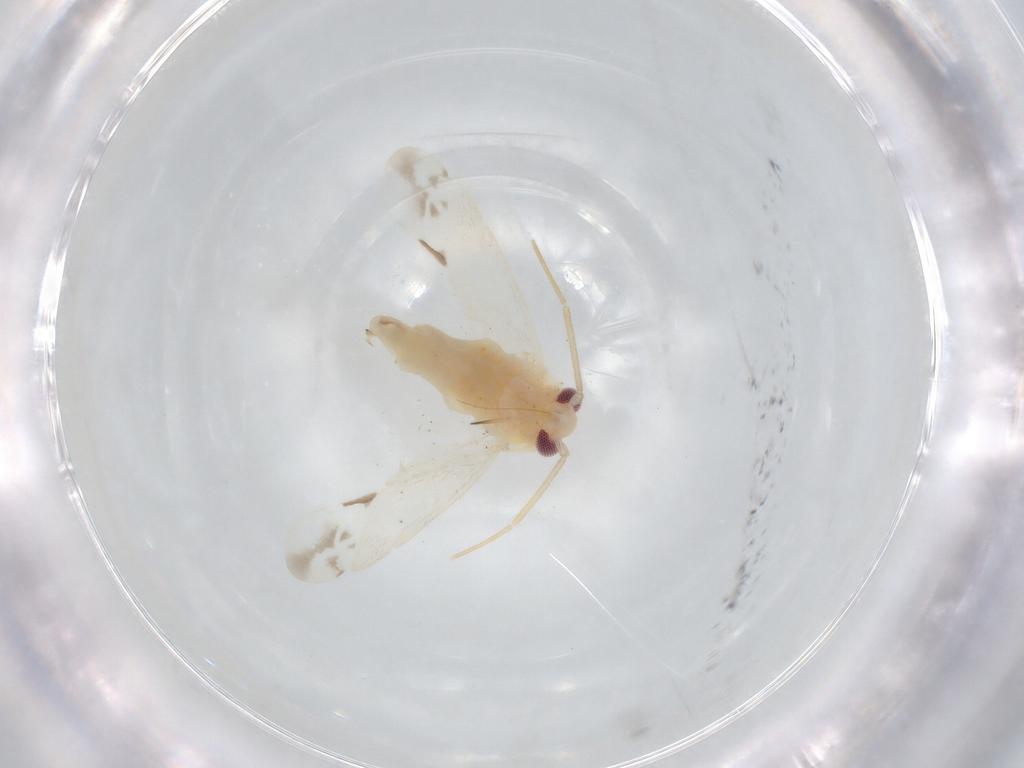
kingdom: Animalia
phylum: Arthropoda
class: Insecta
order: Hemiptera
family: Miridae
